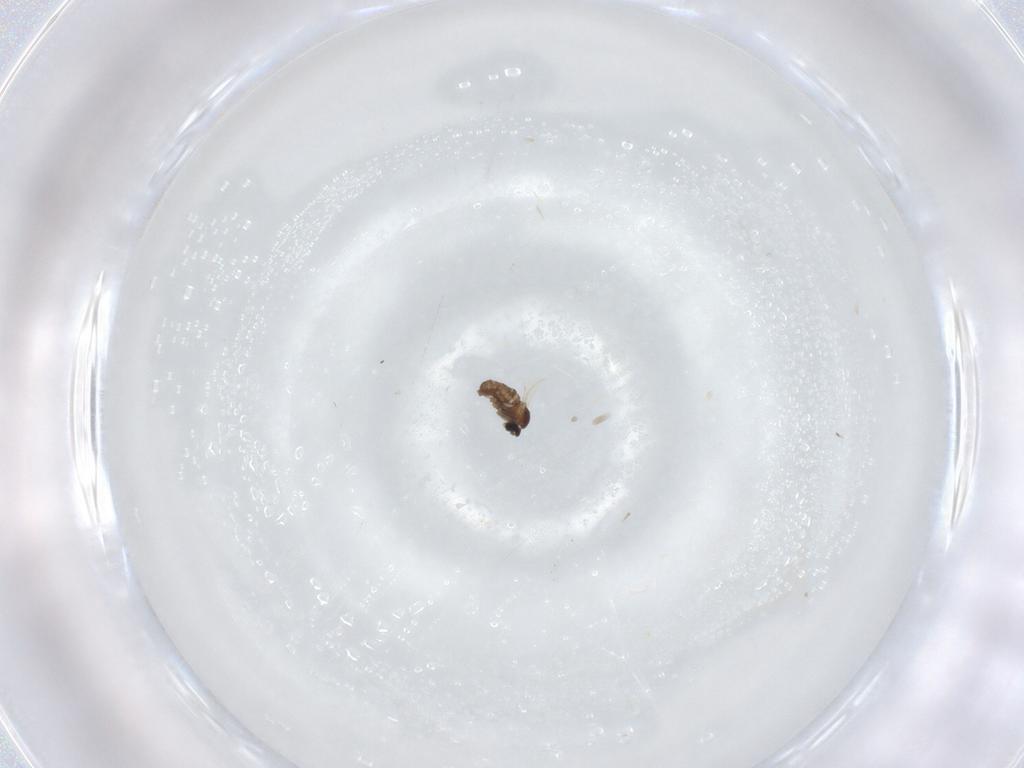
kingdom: Animalia
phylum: Arthropoda
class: Insecta
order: Diptera
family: Cecidomyiidae
